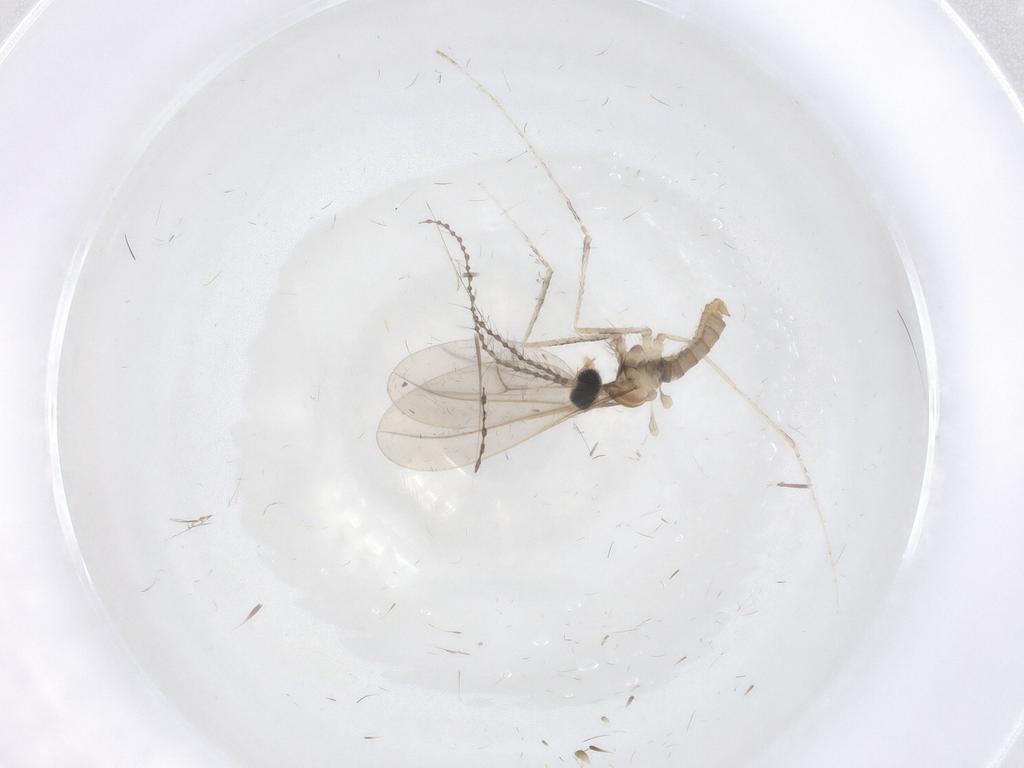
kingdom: Animalia
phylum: Arthropoda
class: Insecta
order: Diptera
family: Cecidomyiidae
